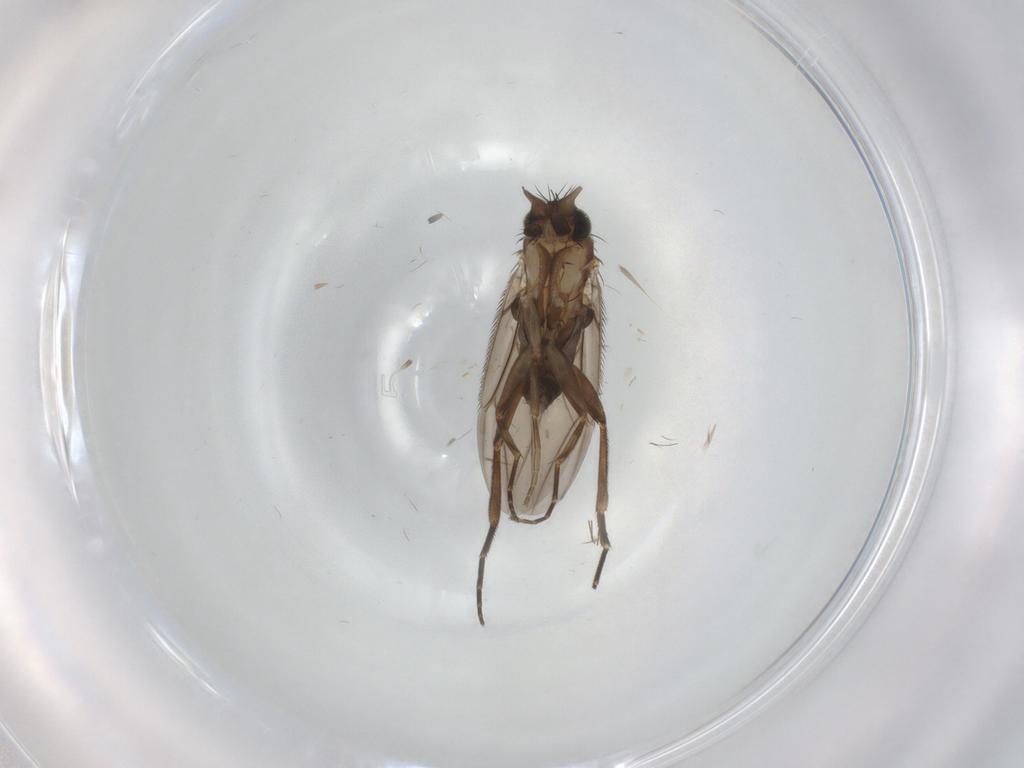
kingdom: Animalia
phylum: Arthropoda
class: Insecta
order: Diptera
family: Phoridae
